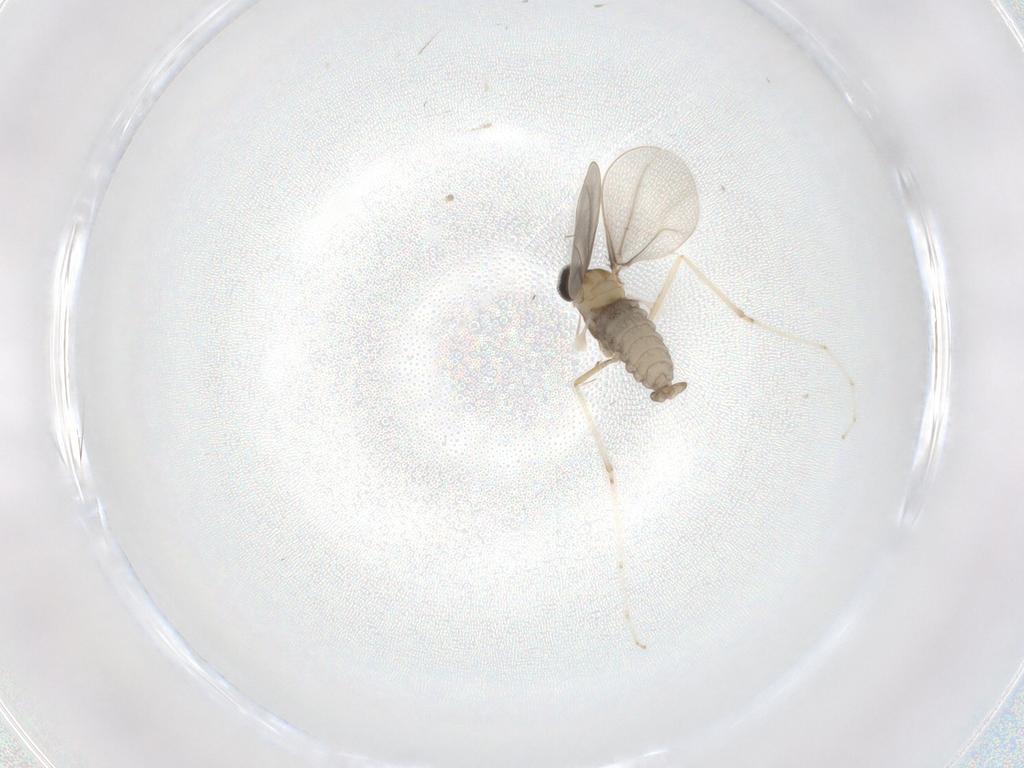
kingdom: Animalia
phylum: Arthropoda
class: Insecta
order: Diptera
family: Cecidomyiidae
